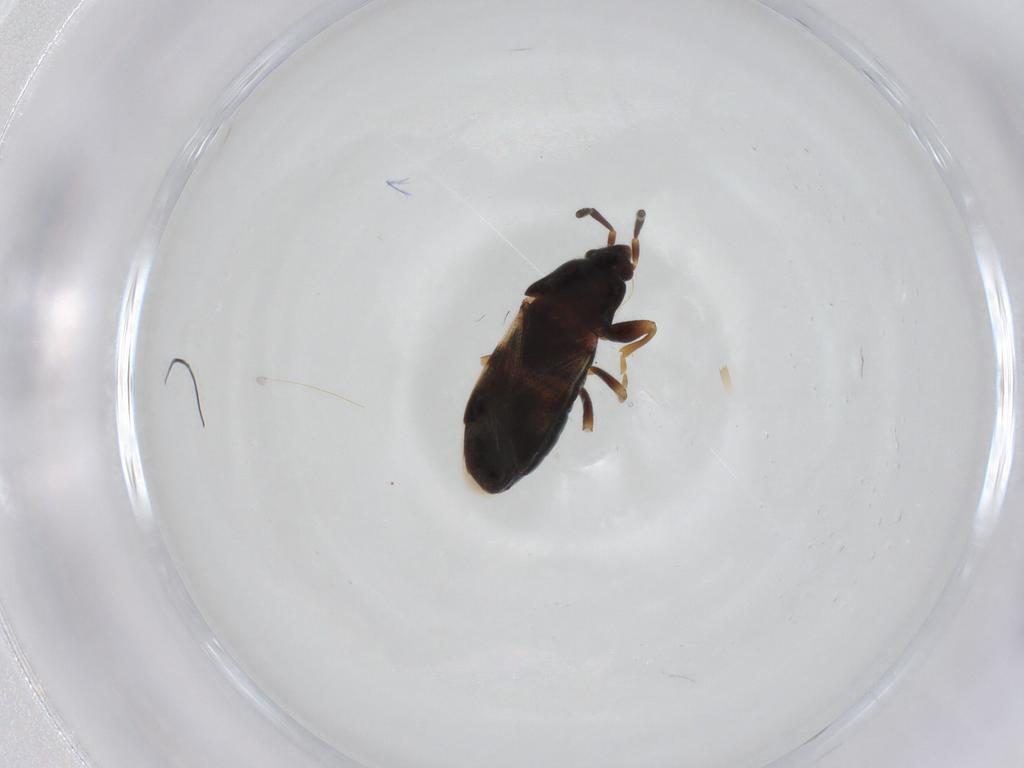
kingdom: Animalia
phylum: Arthropoda
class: Insecta
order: Hemiptera
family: Rhyparochromidae
